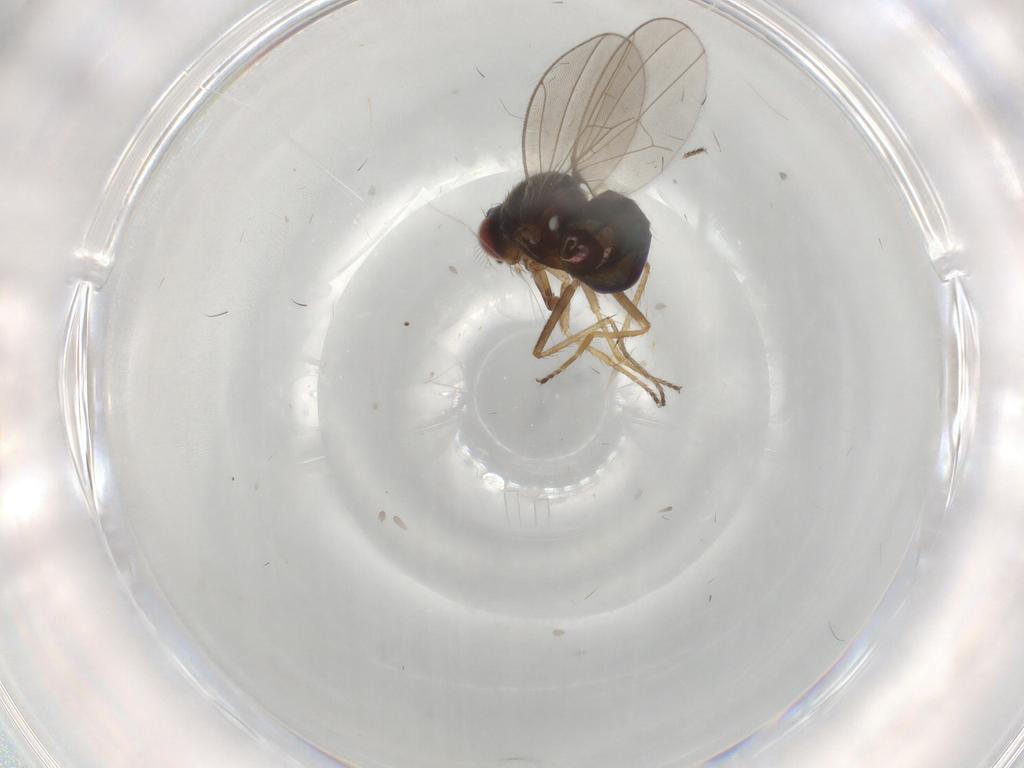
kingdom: Animalia
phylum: Arthropoda
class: Insecta
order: Diptera
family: Ephydridae
